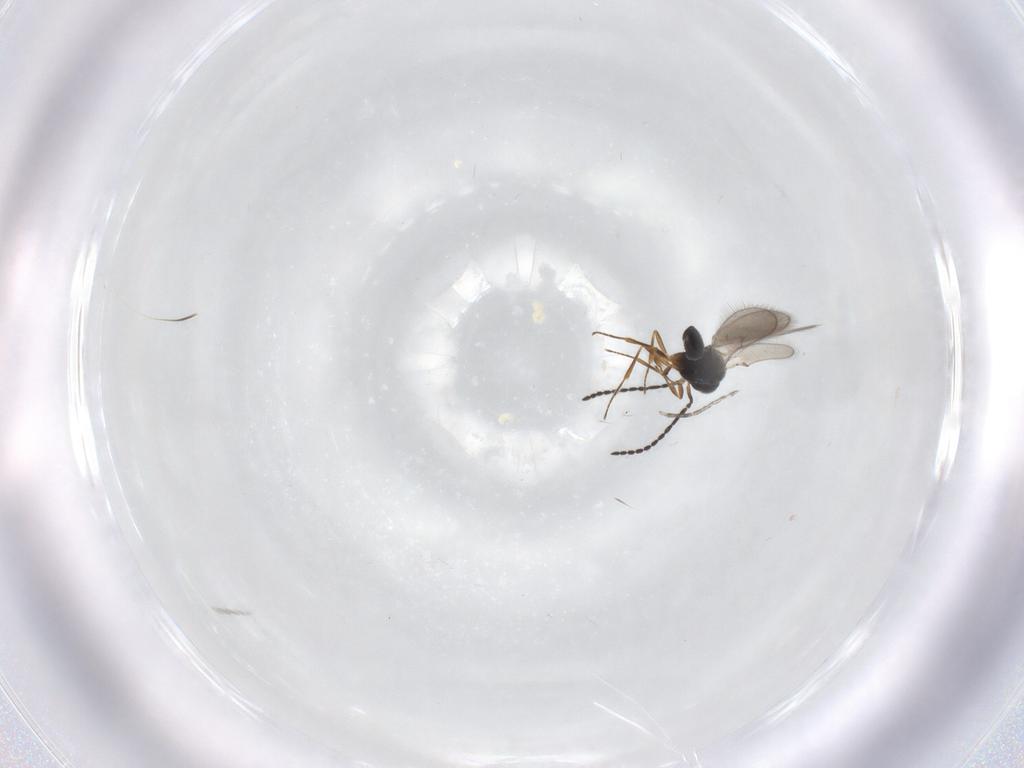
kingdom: Animalia
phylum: Arthropoda
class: Insecta
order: Hymenoptera
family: Scelionidae
